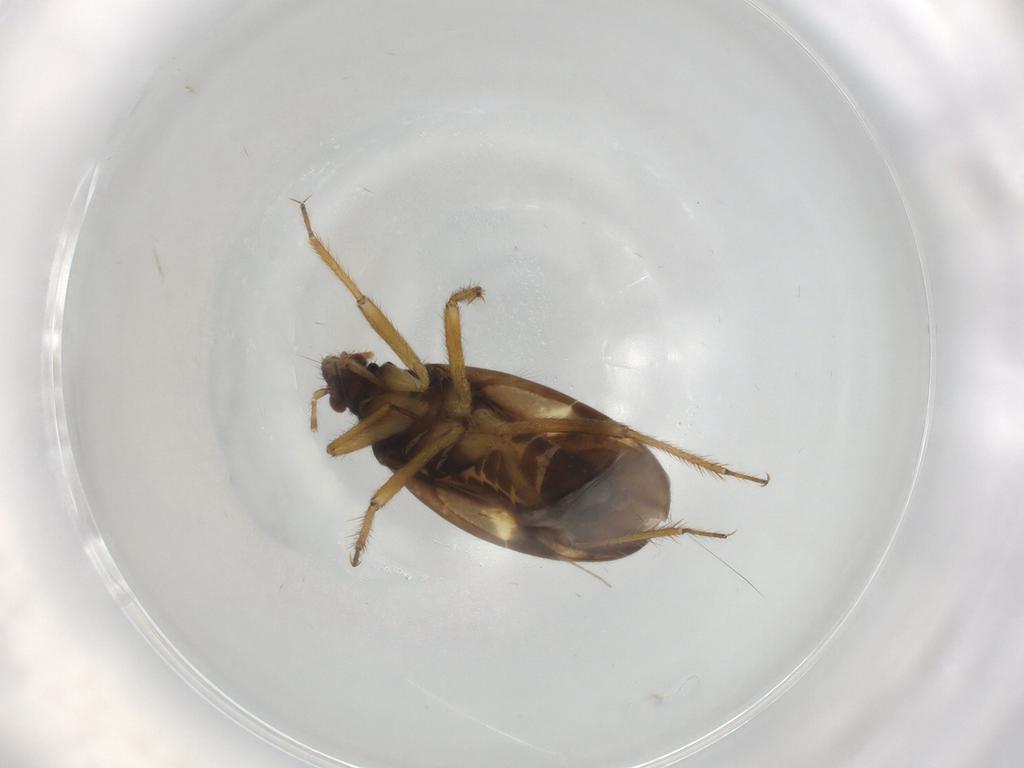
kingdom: Animalia
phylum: Arthropoda
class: Insecta
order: Hemiptera
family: Ceratocombidae
